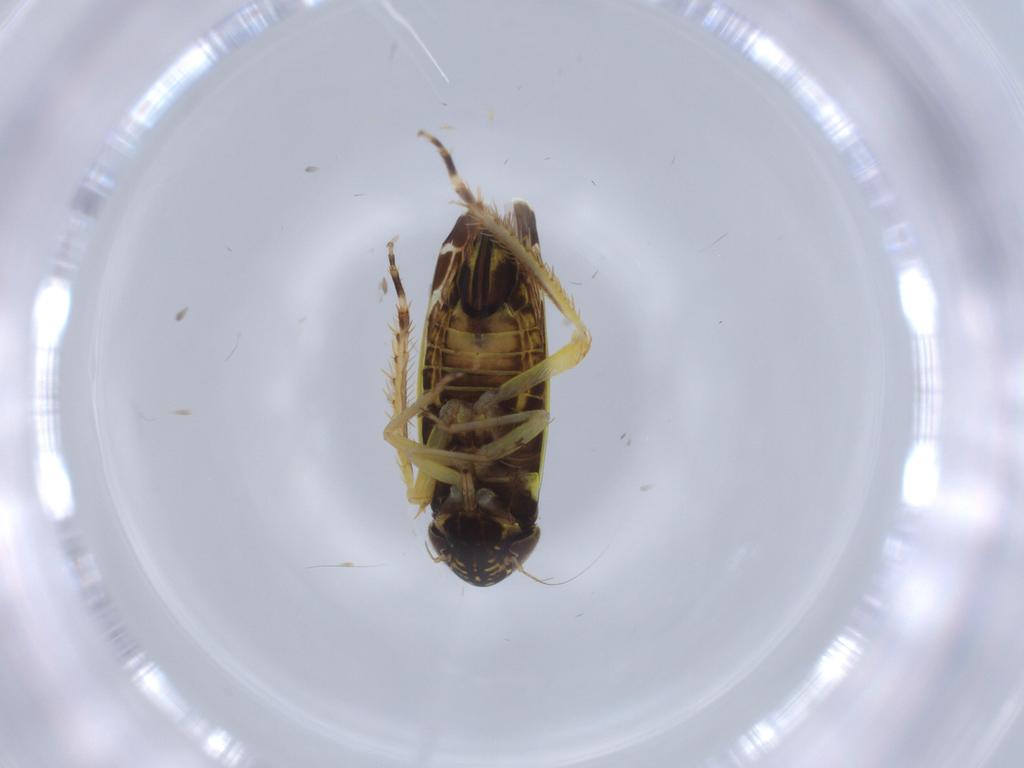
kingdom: Animalia
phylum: Arthropoda
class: Insecta
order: Hemiptera
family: Cicadellidae
